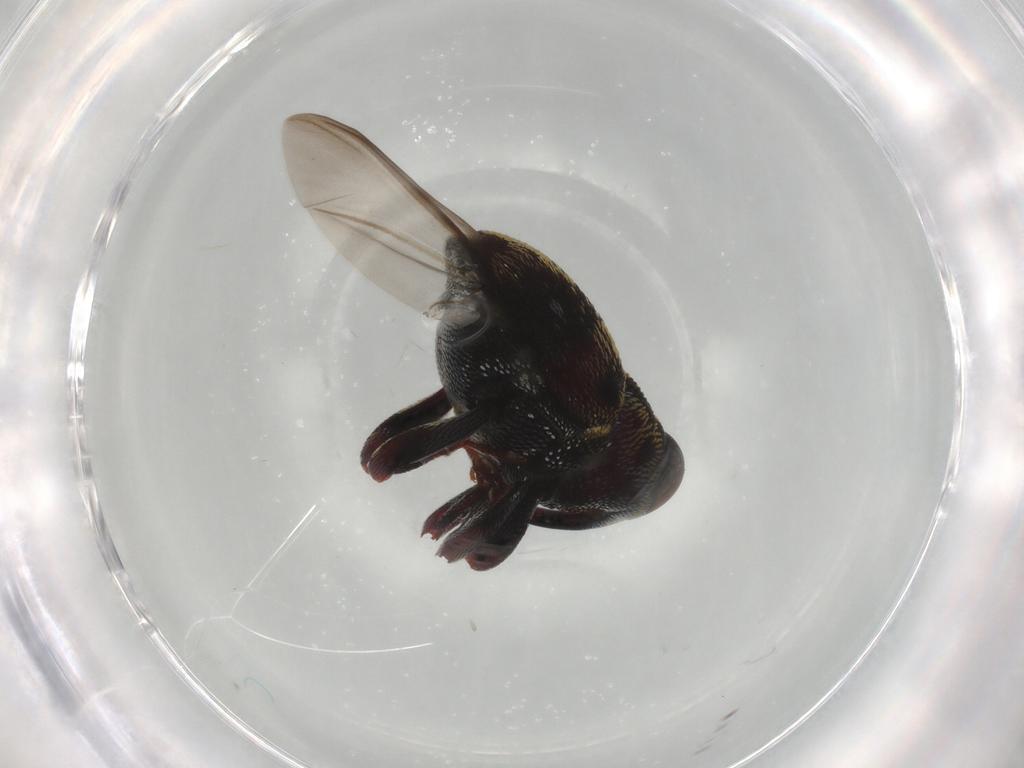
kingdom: Animalia
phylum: Arthropoda
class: Insecta
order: Coleoptera
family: Curculionidae
